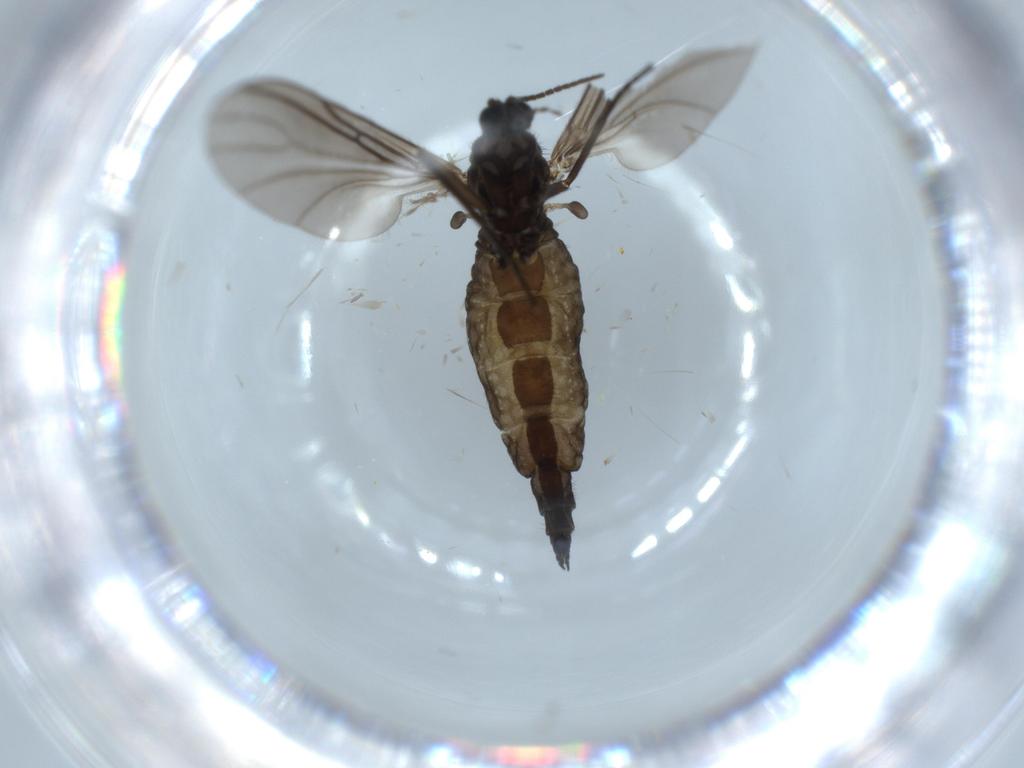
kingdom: Animalia
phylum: Arthropoda
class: Insecta
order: Diptera
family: Sciaridae
